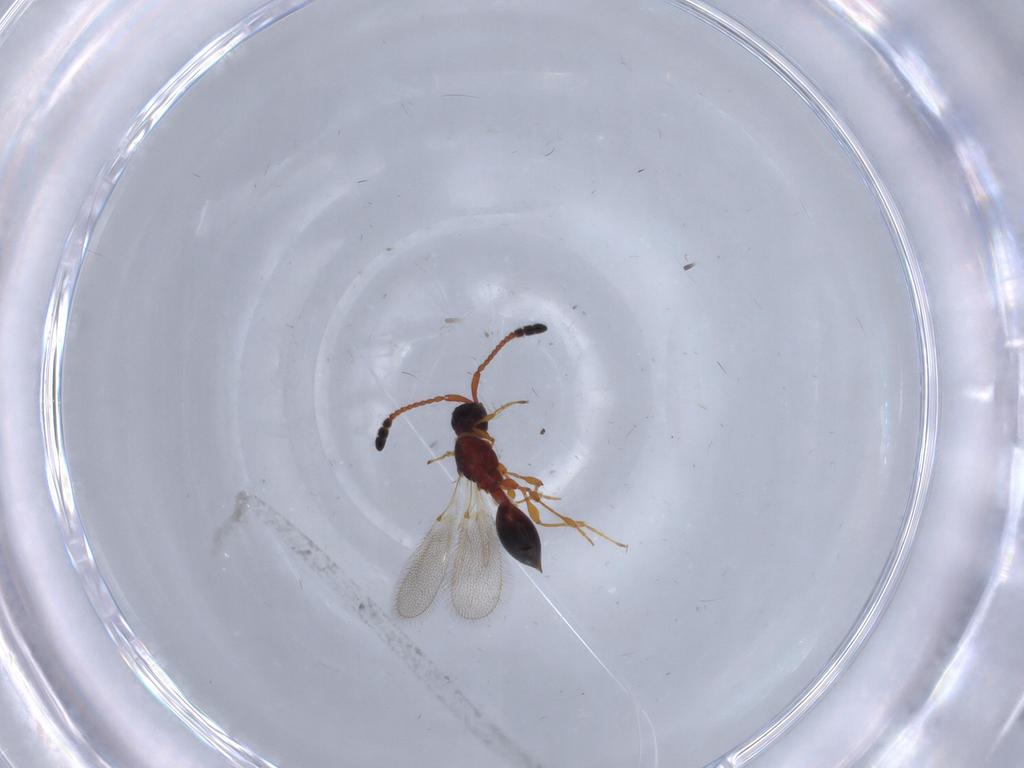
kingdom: Animalia
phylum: Arthropoda
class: Insecta
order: Hymenoptera
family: Diapriidae
